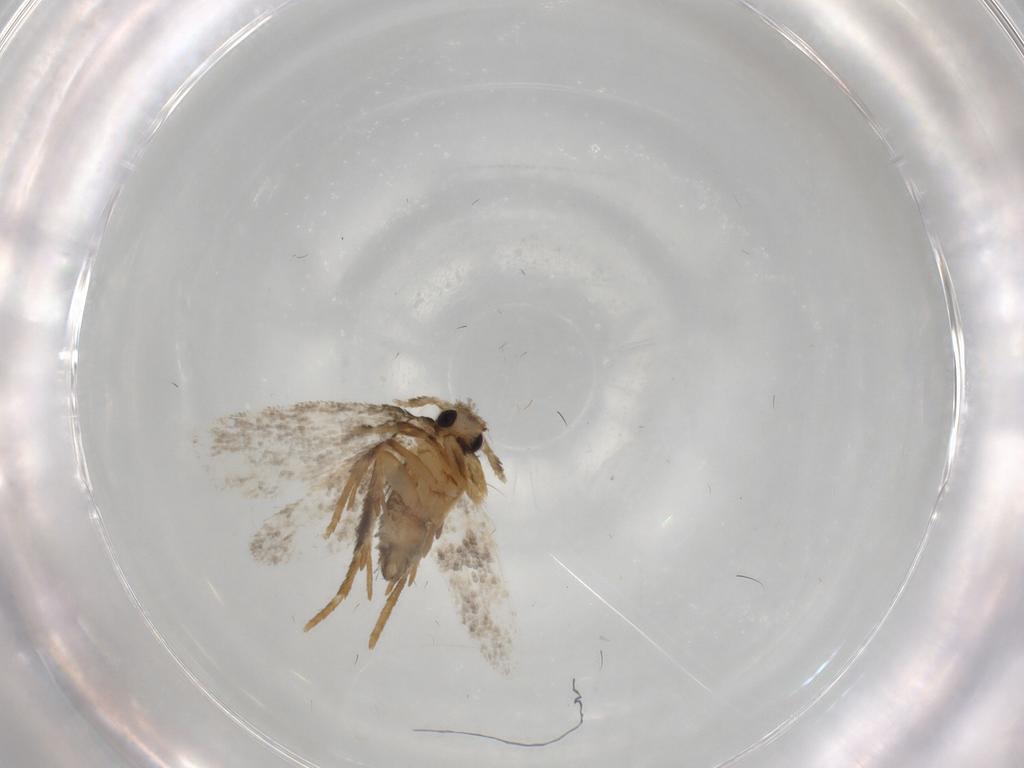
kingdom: Animalia
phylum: Arthropoda
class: Insecta
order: Lepidoptera
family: Psychidae
